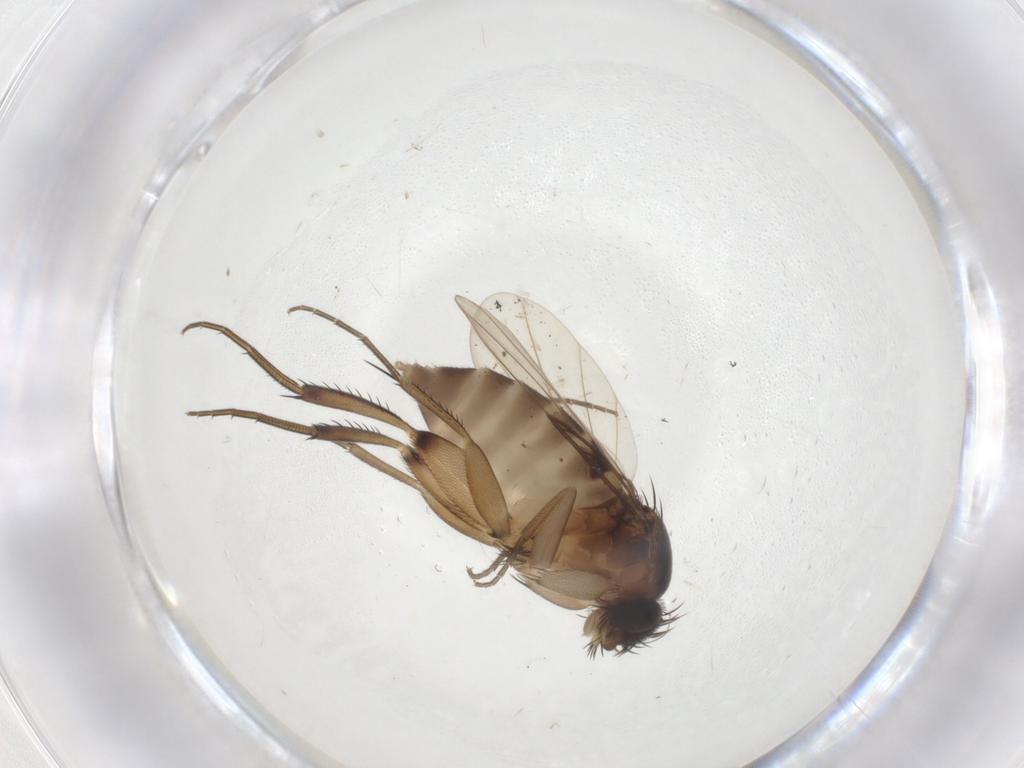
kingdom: Animalia
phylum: Arthropoda
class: Insecta
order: Diptera
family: Phoridae
